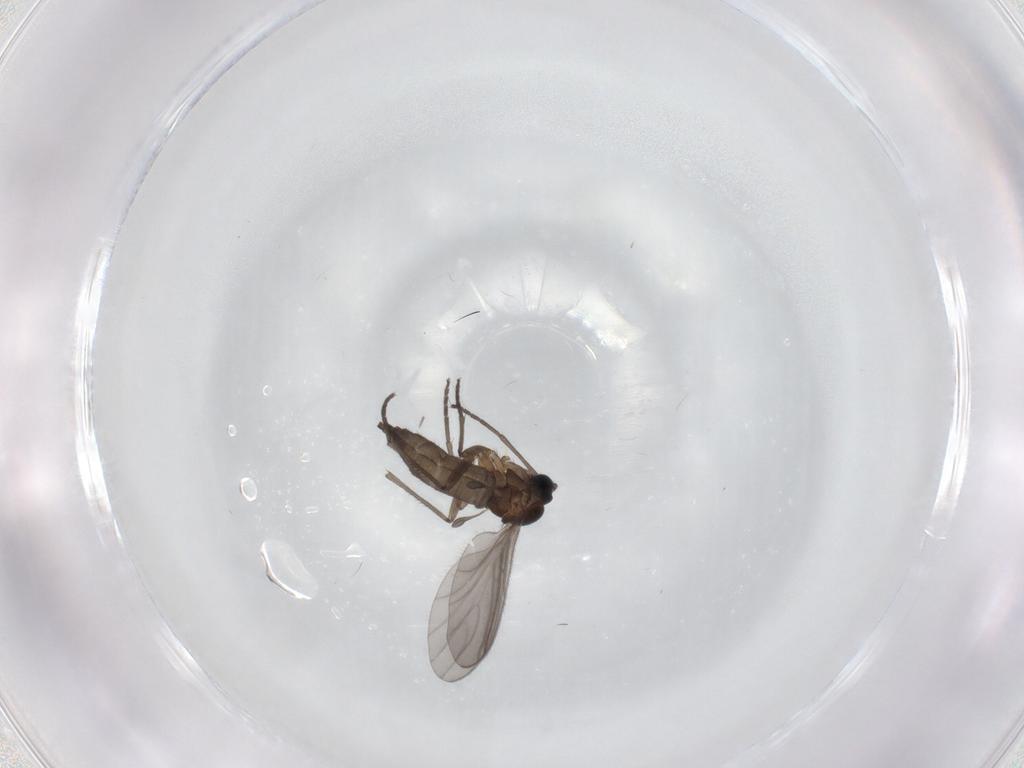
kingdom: Animalia
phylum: Arthropoda
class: Insecta
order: Diptera
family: Sciaridae
